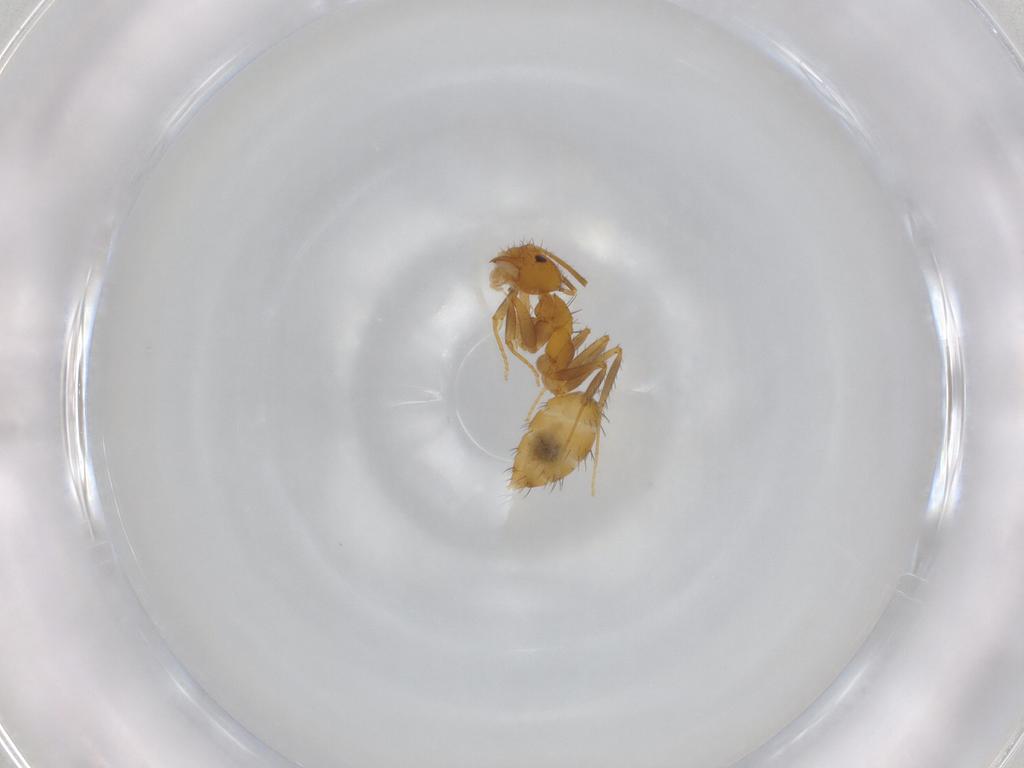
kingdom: Animalia
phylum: Arthropoda
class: Insecta
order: Hymenoptera
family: Formicidae
